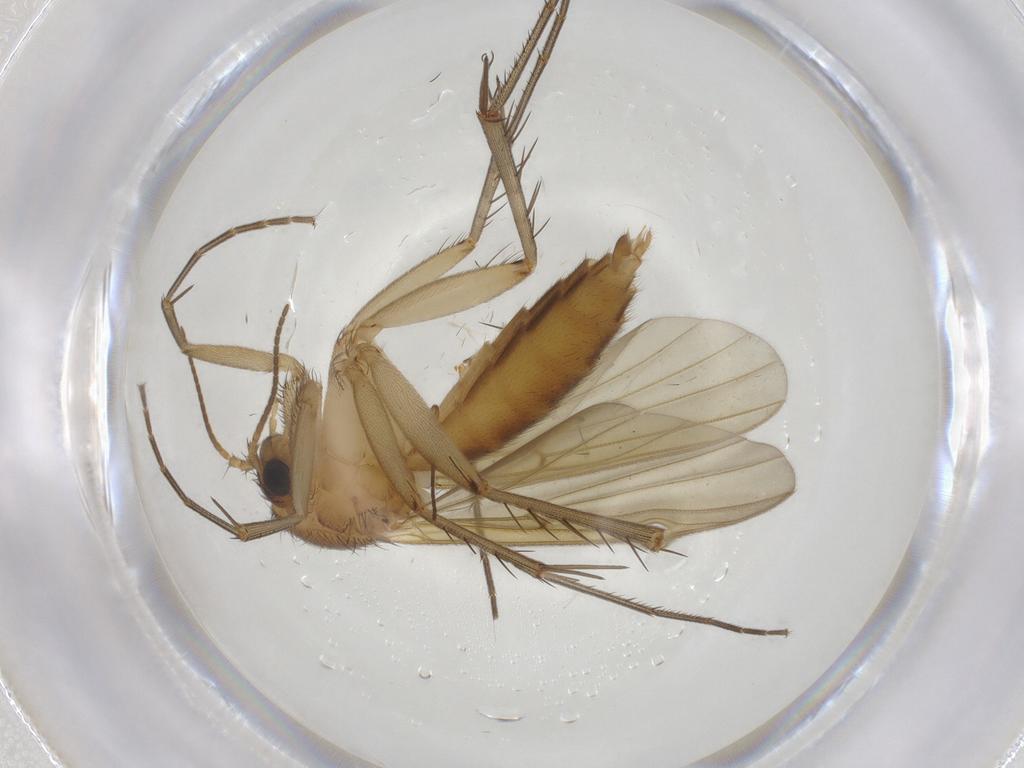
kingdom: Animalia
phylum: Arthropoda
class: Insecta
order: Diptera
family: Mycetophilidae
